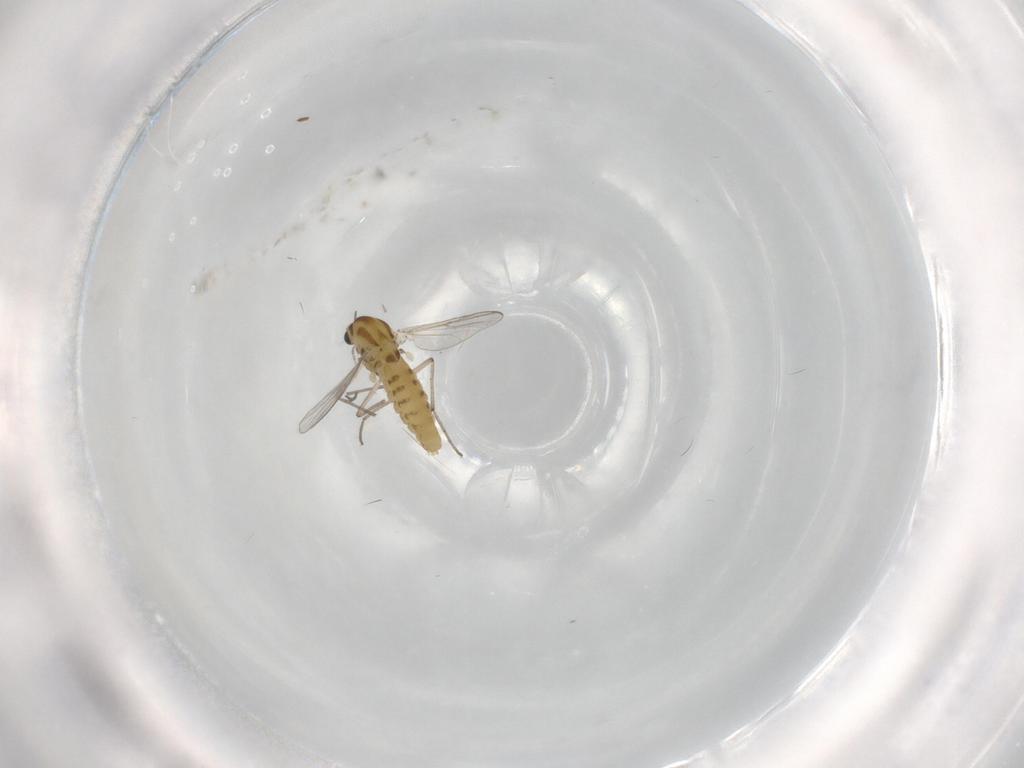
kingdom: Animalia
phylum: Arthropoda
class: Insecta
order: Diptera
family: Chironomidae
